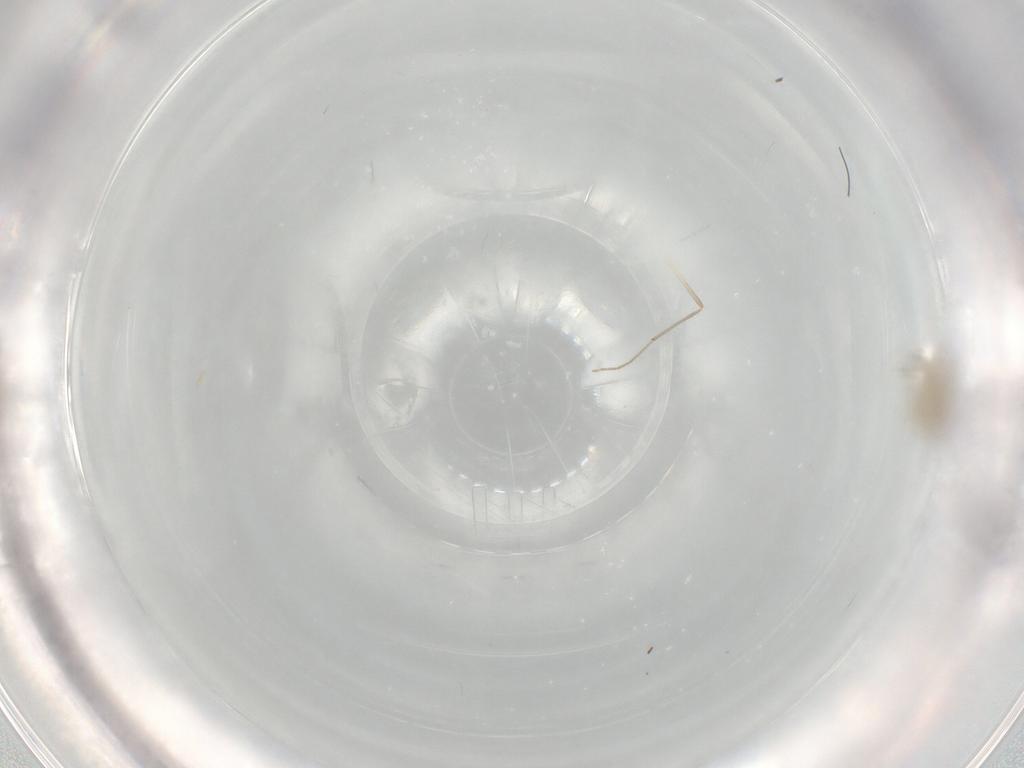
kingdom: Animalia
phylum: Arthropoda
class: Insecta
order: Diptera
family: Chironomidae
